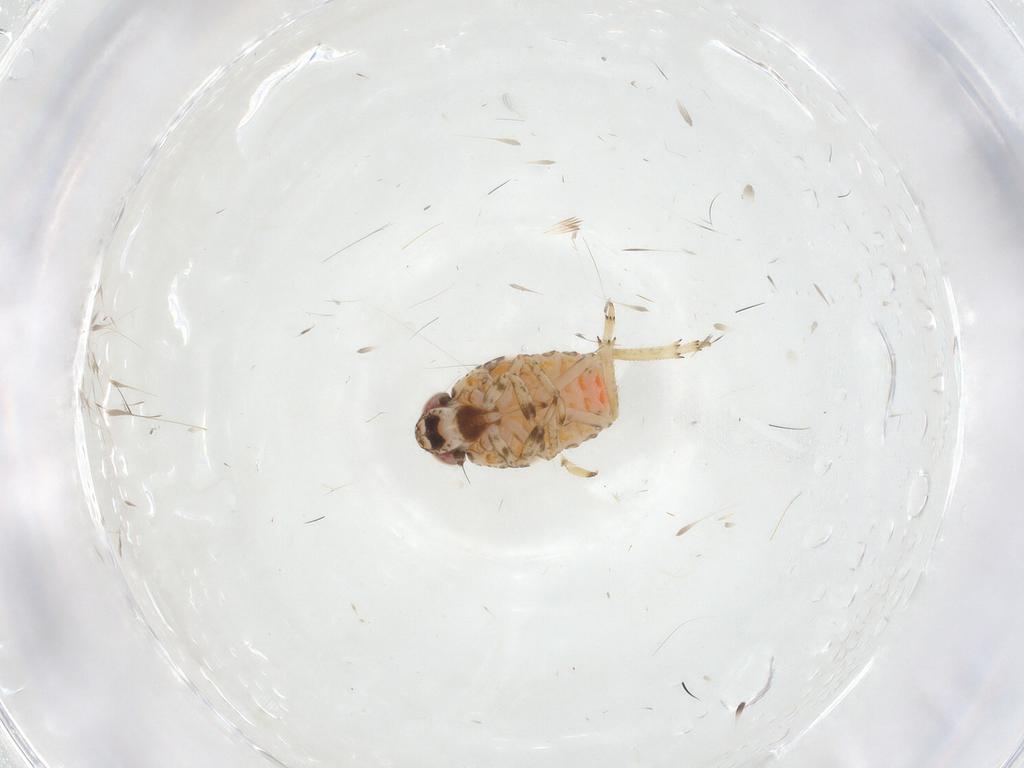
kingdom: Animalia
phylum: Arthropoda
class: Insecta
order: Hemiptera
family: Issidae
